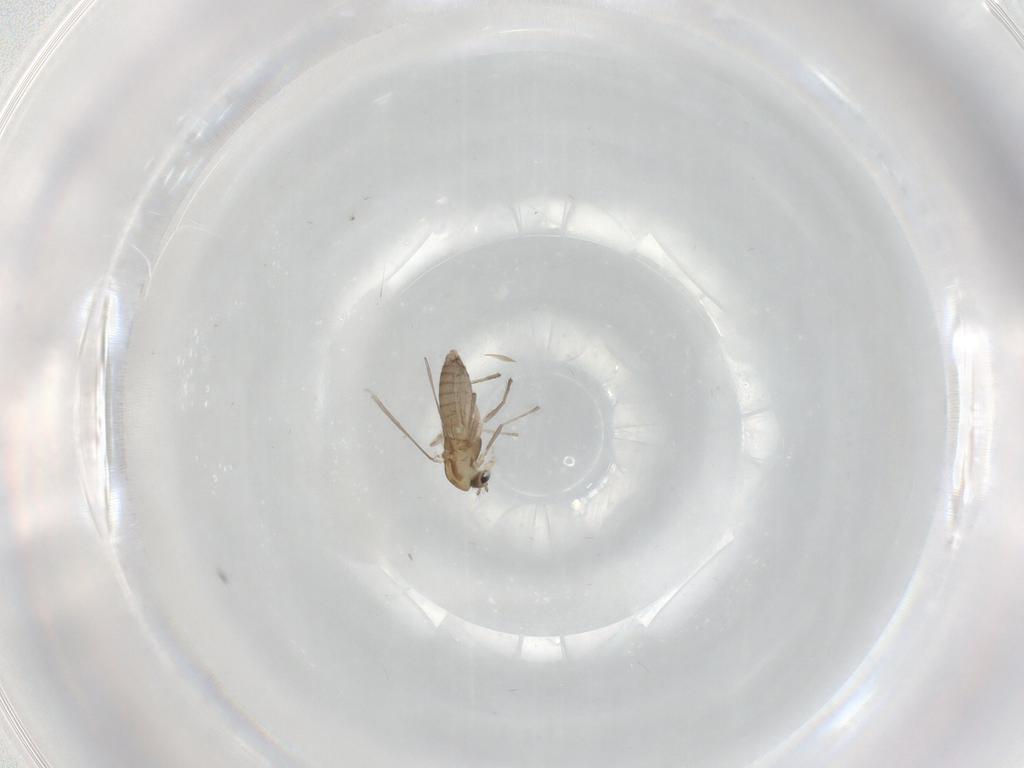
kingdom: Animalia
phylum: Arthropoda
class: Insecta
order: Diptera
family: Chironomidae
